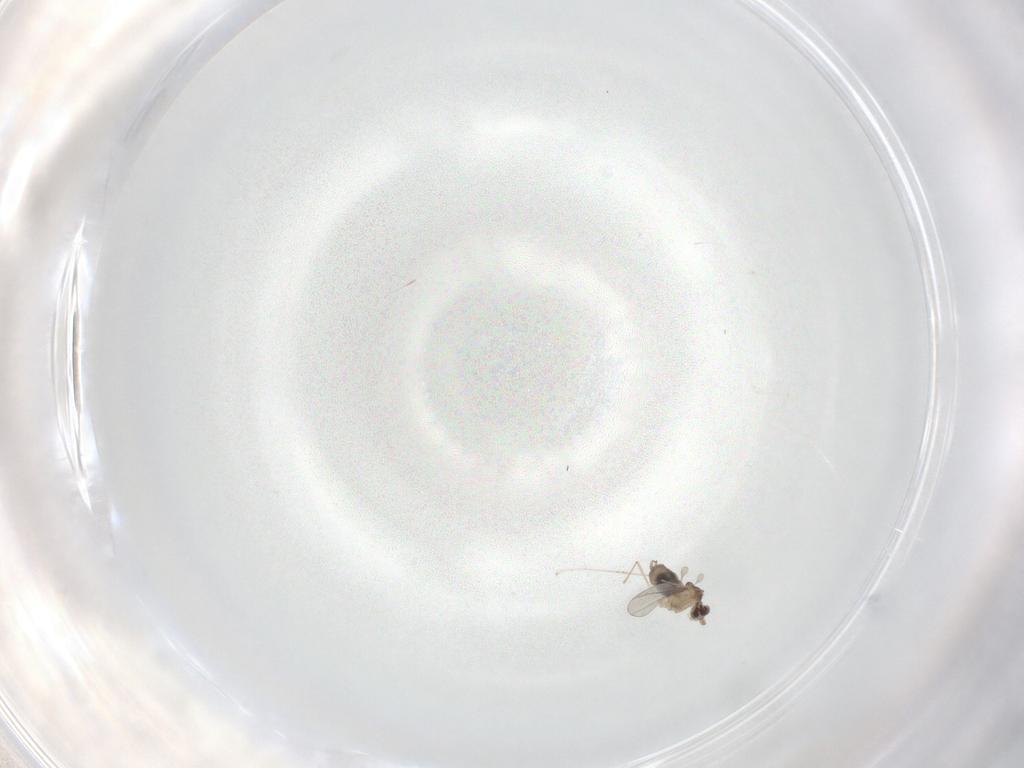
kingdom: Animalia
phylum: Arthropoda
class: Insecta
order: Diptera
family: Cecidomyiidae
